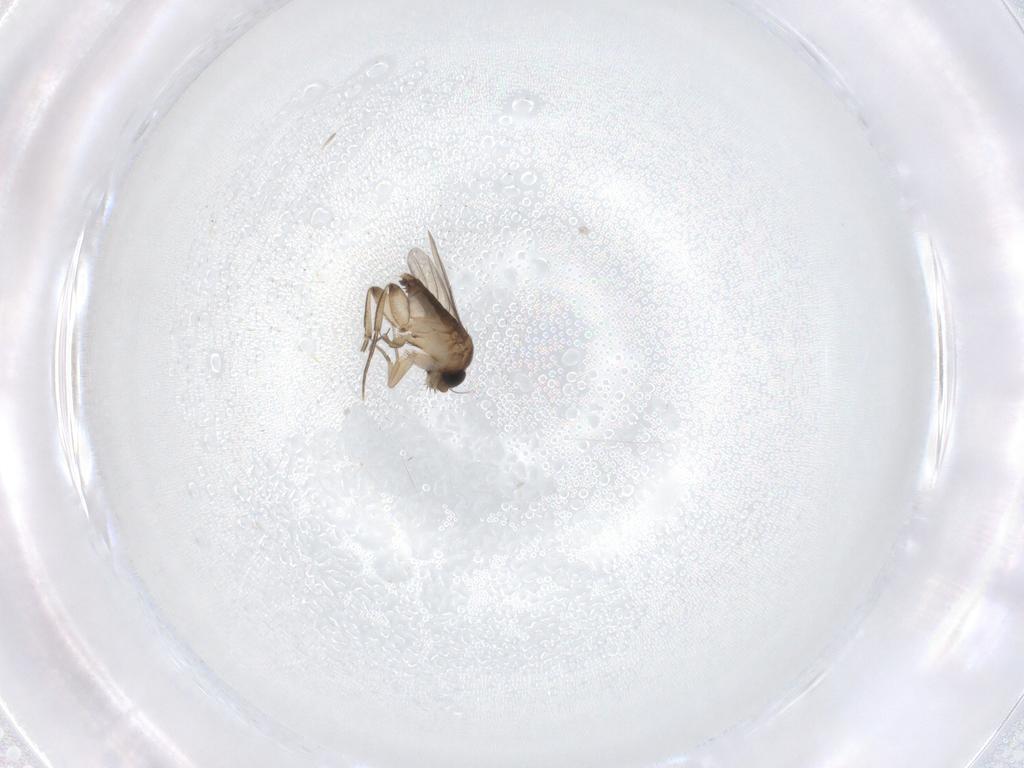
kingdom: Animalia
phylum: Arthropoda
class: Insecta
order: Diptera
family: Phoridae
